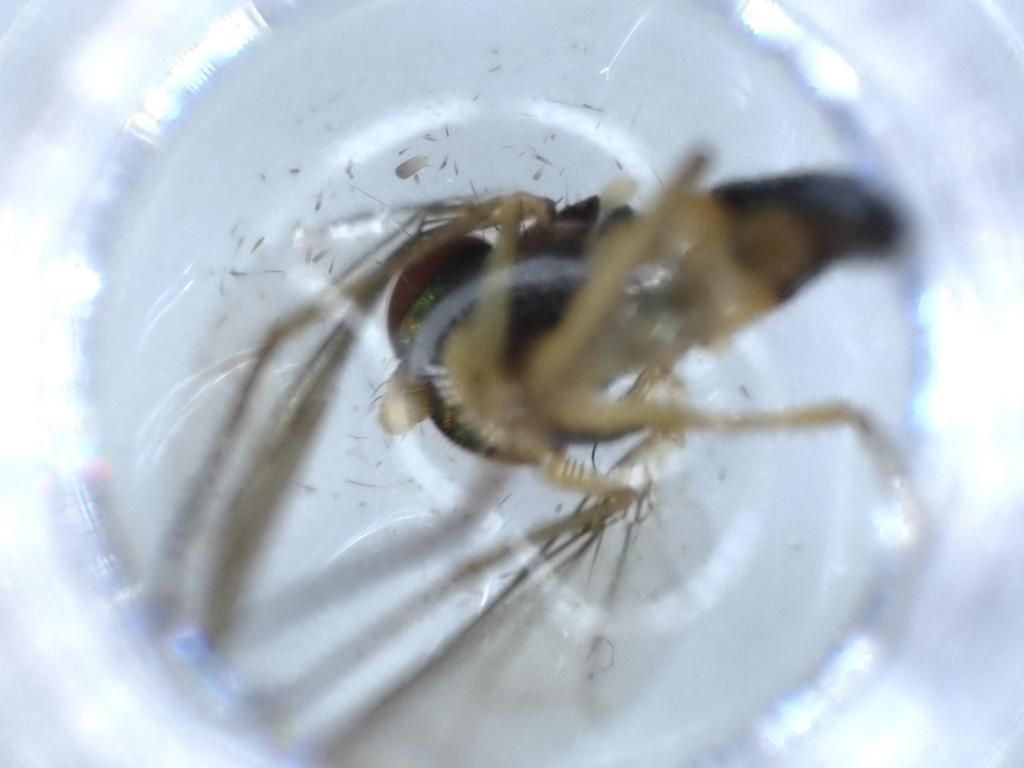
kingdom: Animalia
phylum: Arthropoda
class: Insecta
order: Diptera
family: Dolichopodidae
